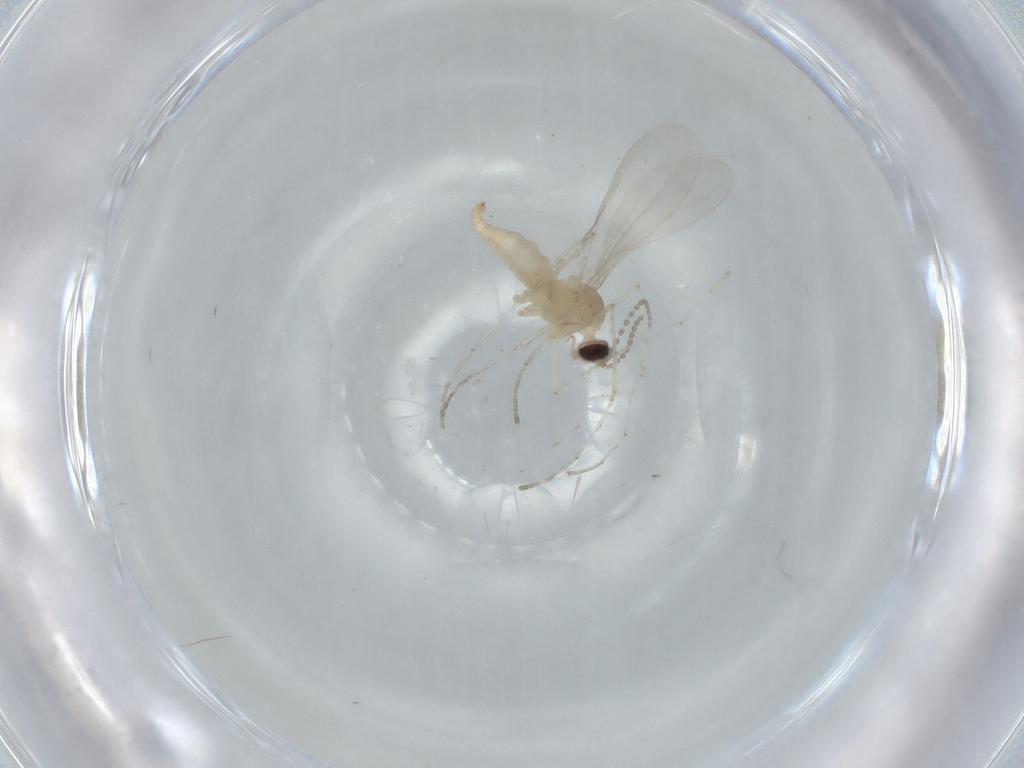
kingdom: Animalia
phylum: Arthropoda
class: Insecta
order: Diptera
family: Cecidomyiidae
